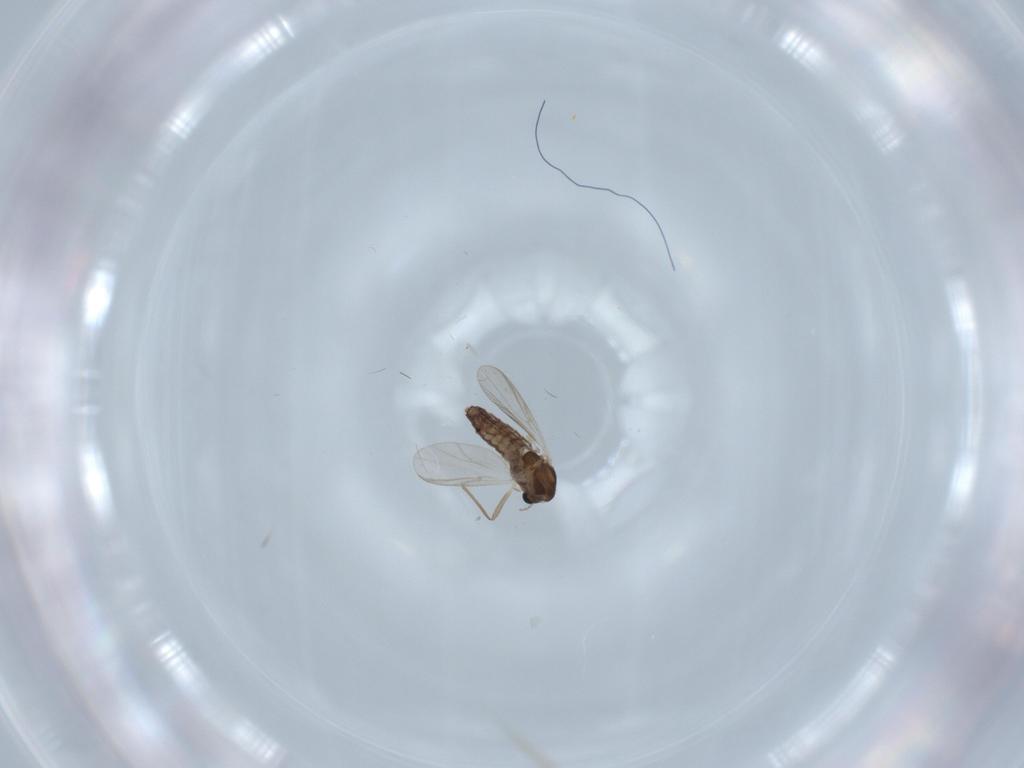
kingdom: Animalia
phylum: Arthropoda
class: Insecta
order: Diptera
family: Chironomidae
